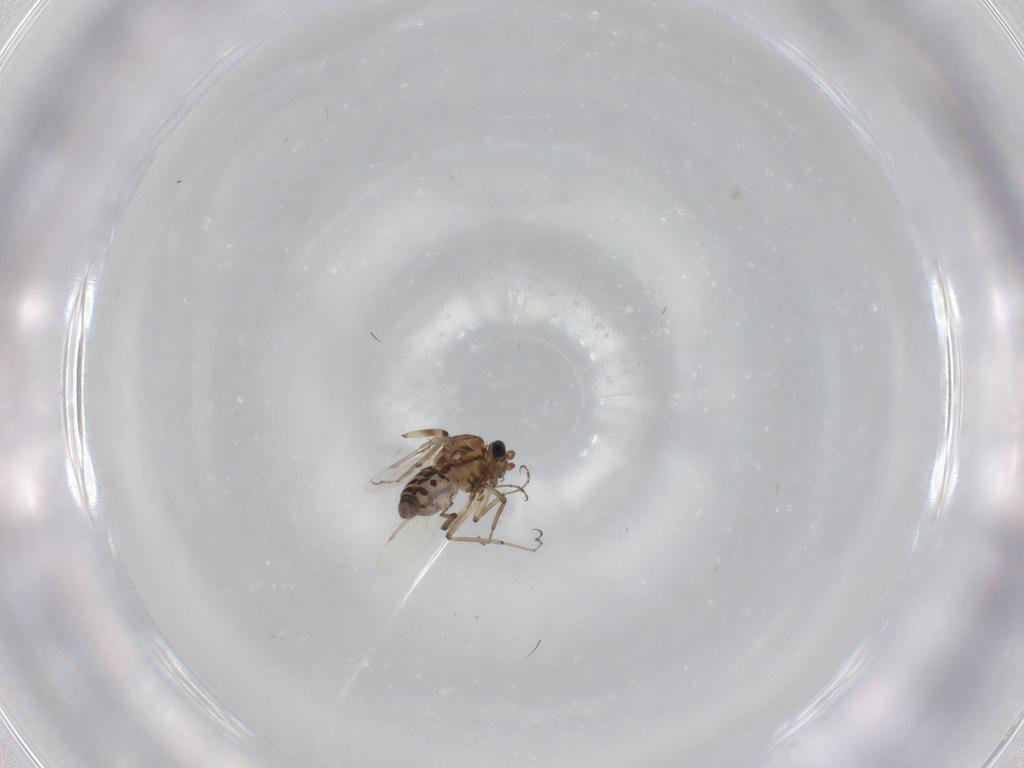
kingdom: Animalia
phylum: Arthropoda
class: Insecta
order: Diptera
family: Ceratopogonidae
